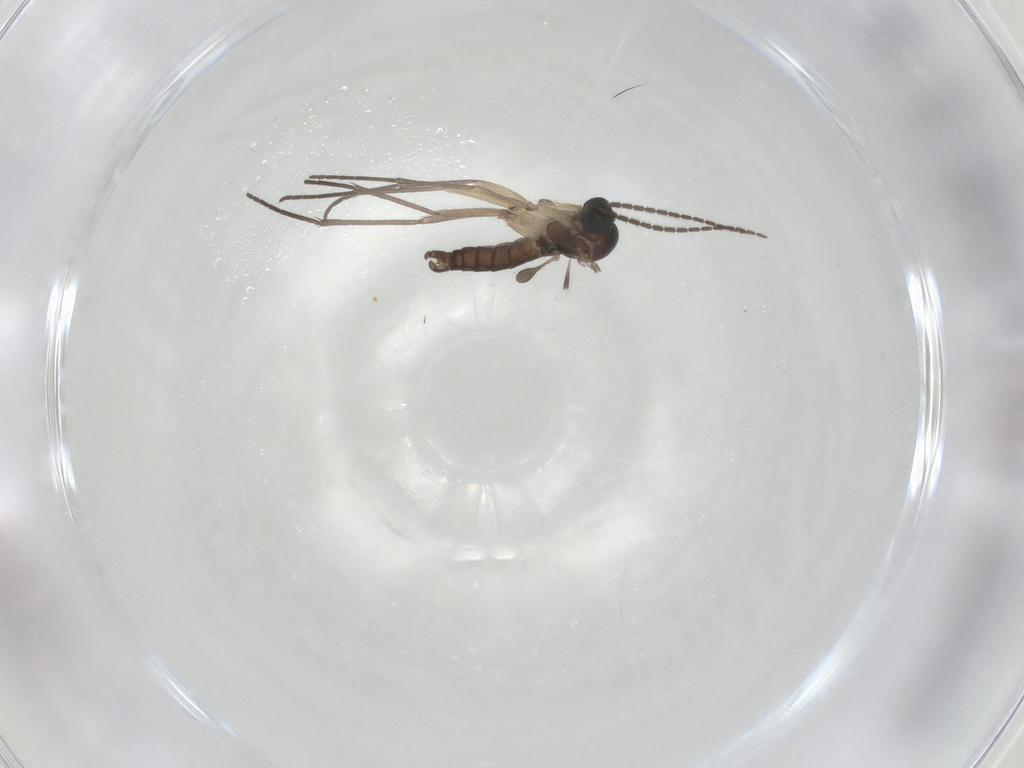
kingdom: Animalia
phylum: Arthropoda
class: Insecta
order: Diptera
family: Sciaridae
